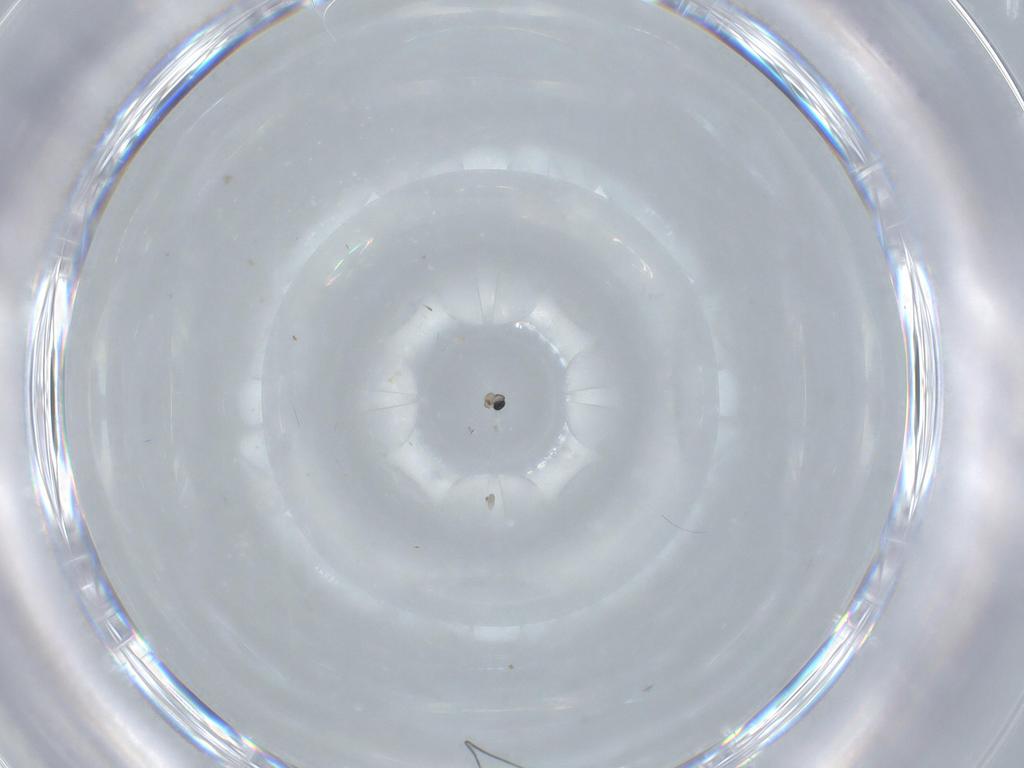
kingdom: Animalia
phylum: Arthropoda
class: Insecta
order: Diptera
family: Cecidomyiidae
